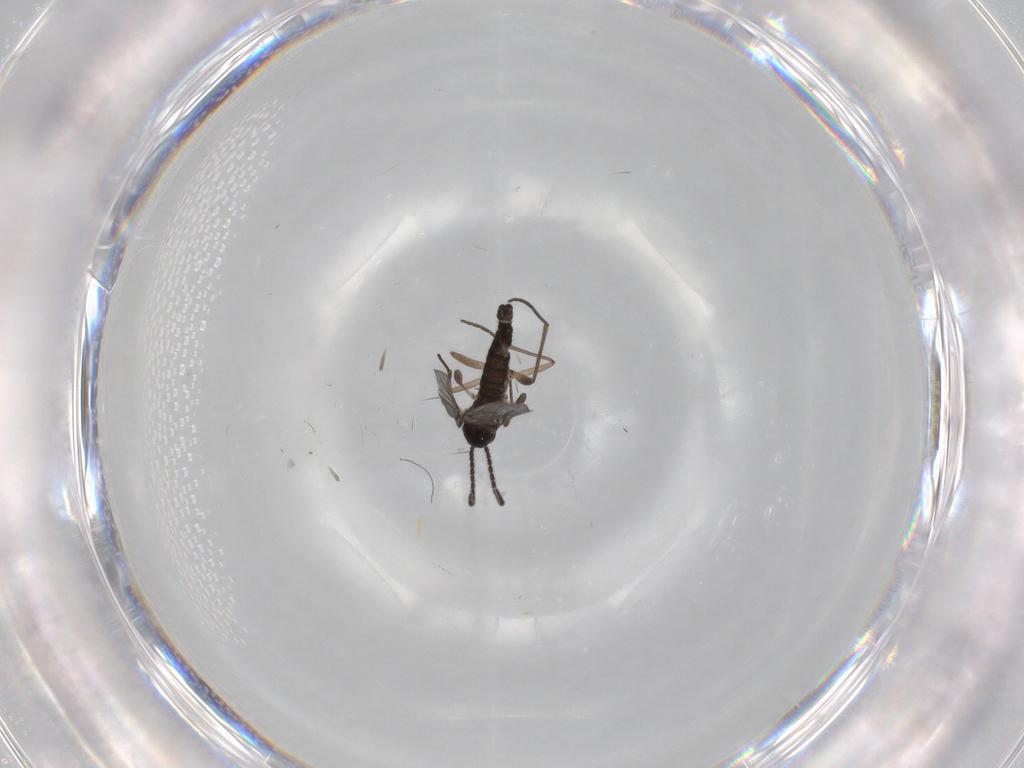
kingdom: Animalia
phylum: Arthropoda
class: Insecta
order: Diptera
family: Sciaridae
